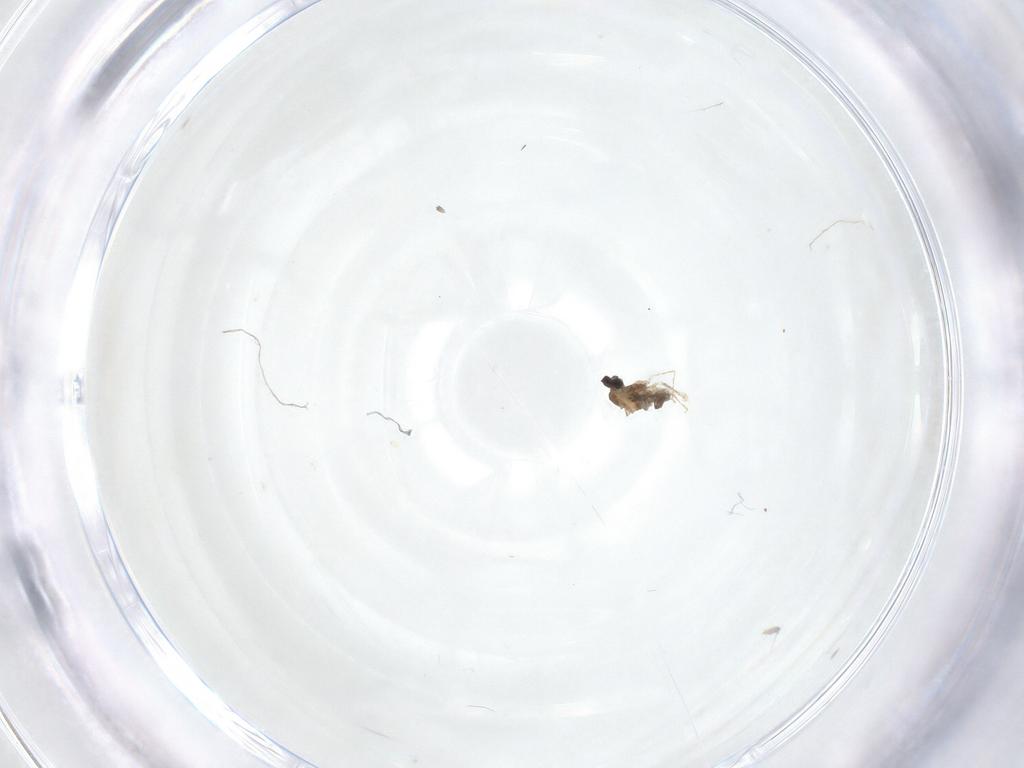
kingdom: Animalia
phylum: Arthropoda
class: Insecta
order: Diptera
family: Cecidomyiidae
